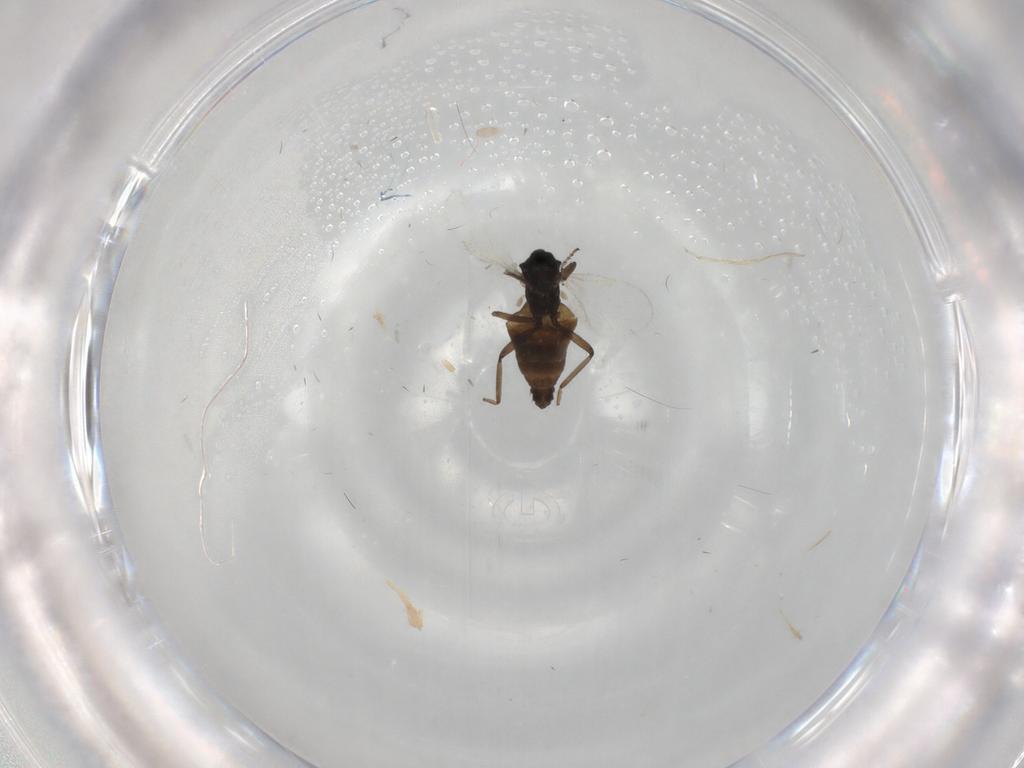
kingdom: Animalia
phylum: Arthropoda
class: Insecta
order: Diptera
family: Ceratopogonidae
